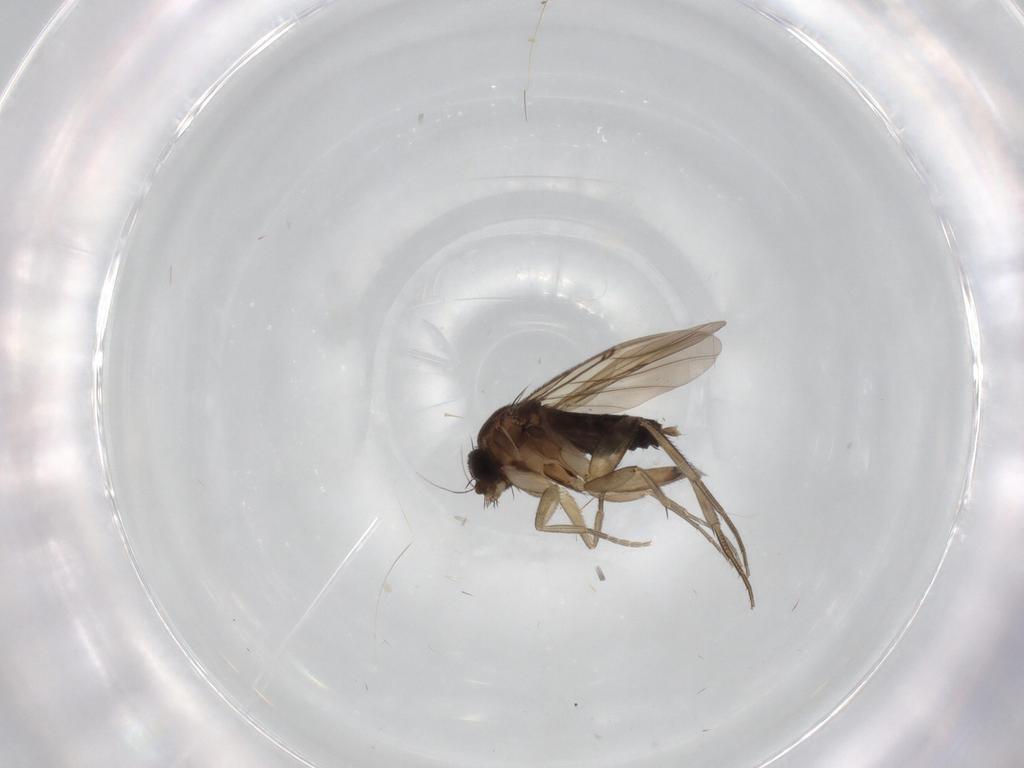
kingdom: Animalia
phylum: Arthropoda
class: Insecta
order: Diptera
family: Phoridae
